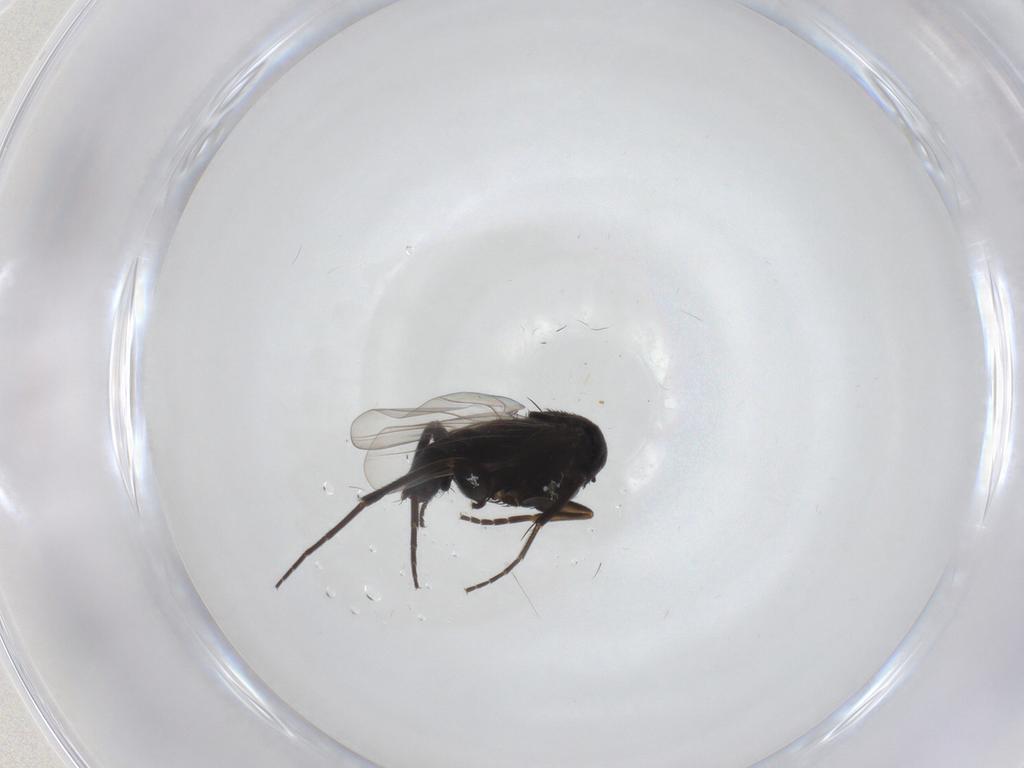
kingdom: Animalia
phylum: Arthropoda
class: Insecta
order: Diptera
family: Phoridae
